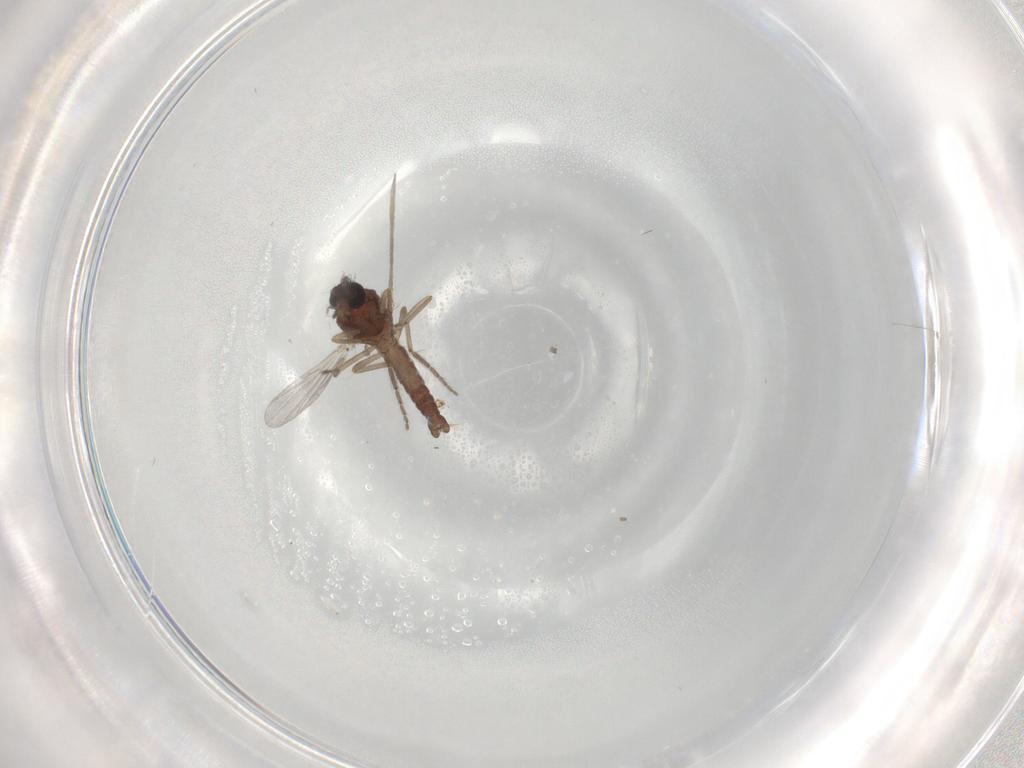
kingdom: Animalia
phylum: Arthropoda
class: Insecta
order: Diptera
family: Ceratopogonidae
